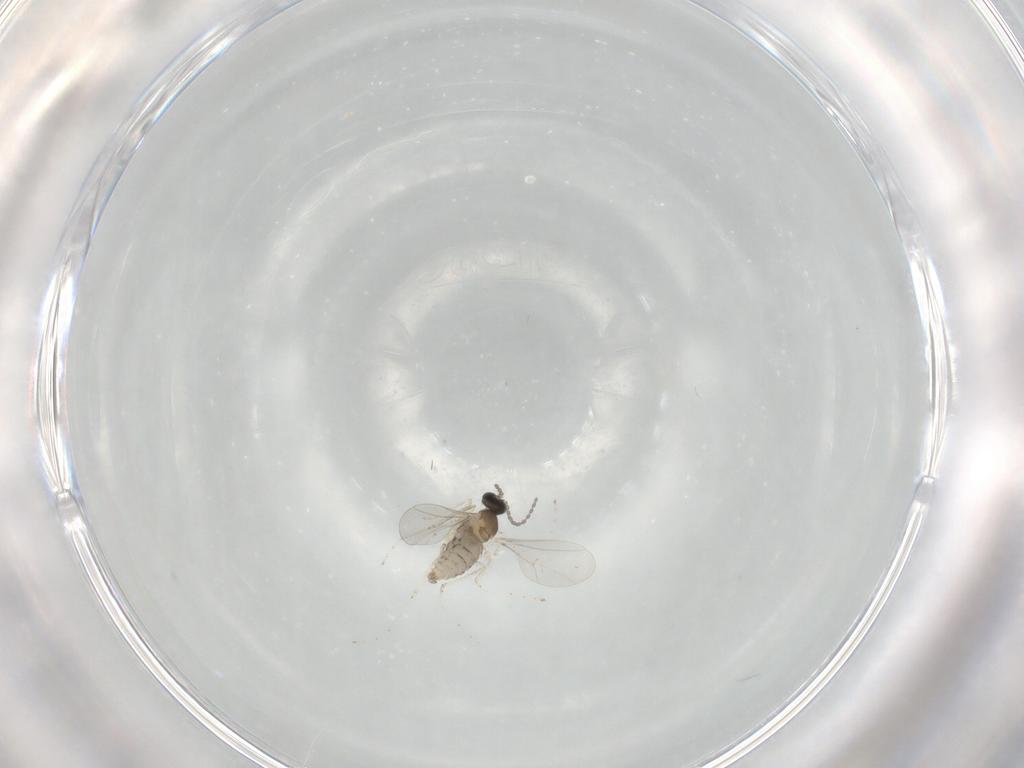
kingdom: Animalia
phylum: Arthropoda
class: Insecta
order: Diptera
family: Cecidomyiidae
